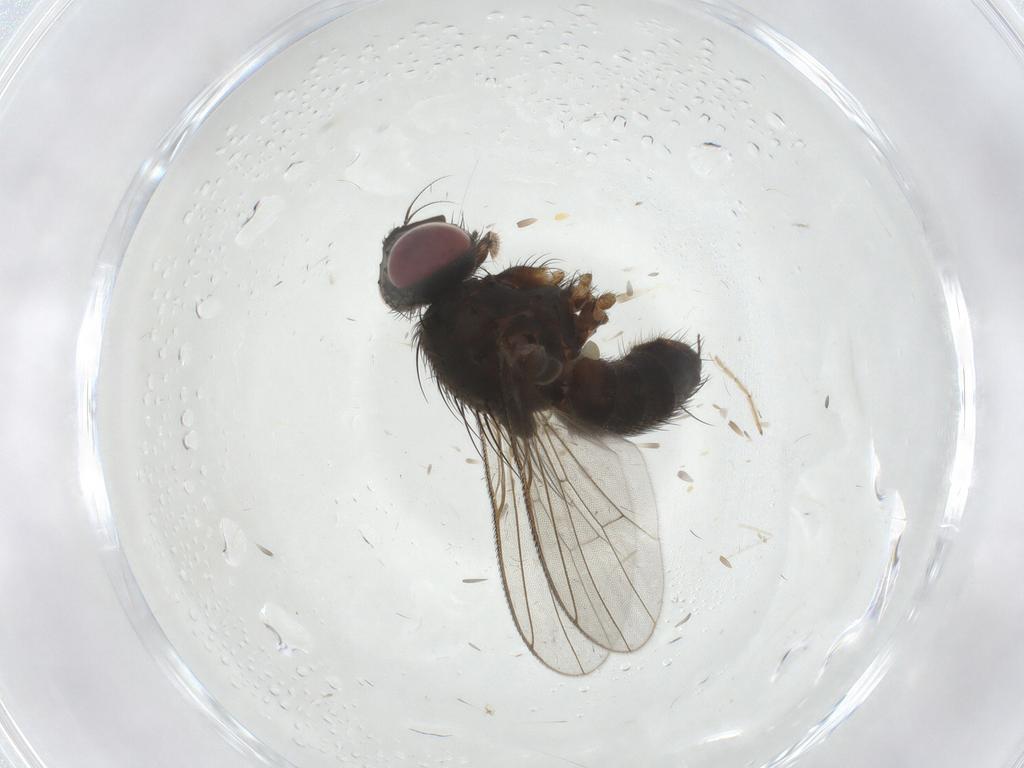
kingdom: Animalia
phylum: Arthropoda
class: Insecta
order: Diptera
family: Muscidae
